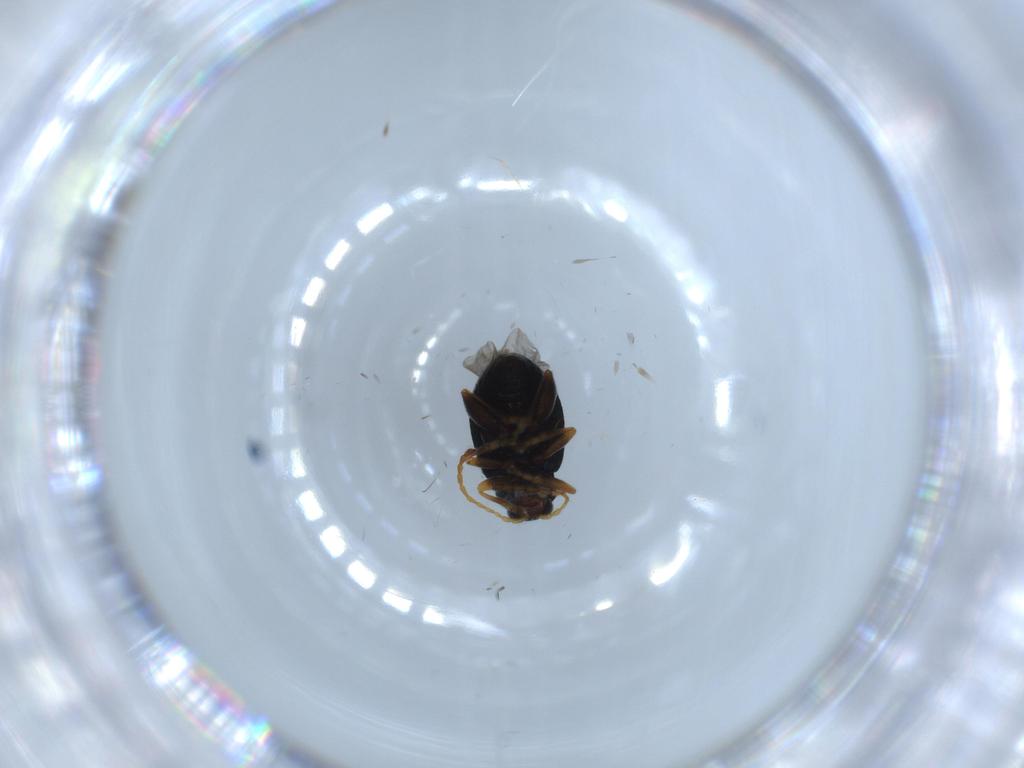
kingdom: Animalia
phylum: Arthropoda
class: Insecta
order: Coleoptera
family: Chrysomelidae
